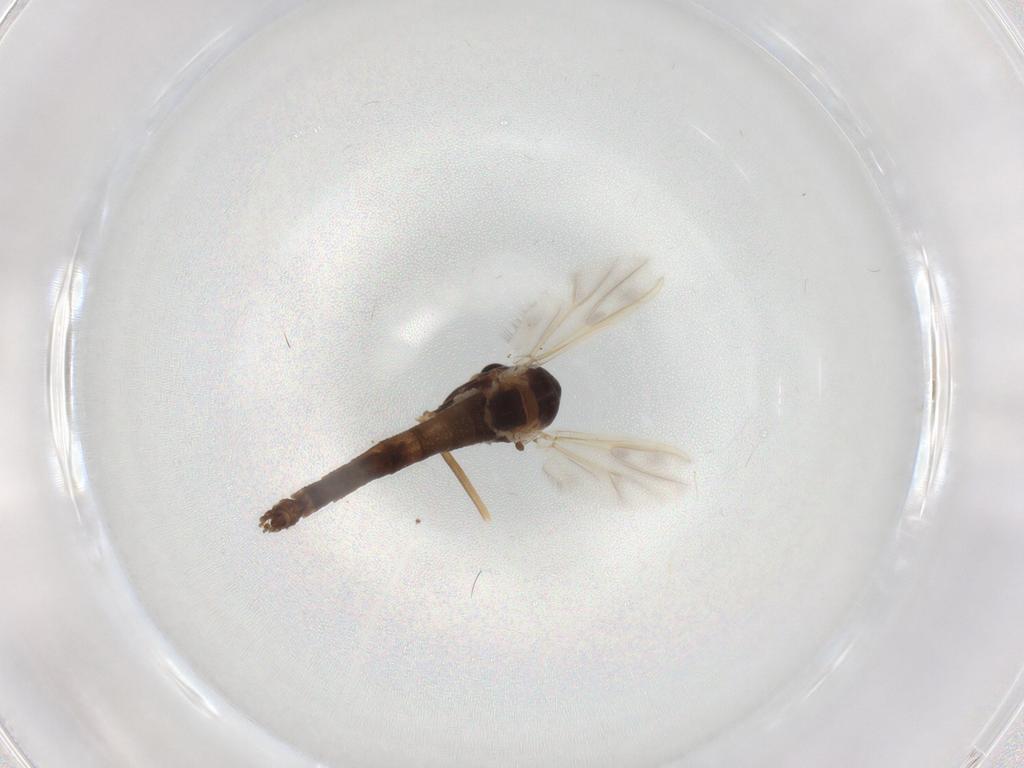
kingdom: Animalia
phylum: Arthropoda
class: Insecta
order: Diptera
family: Chironomidae
